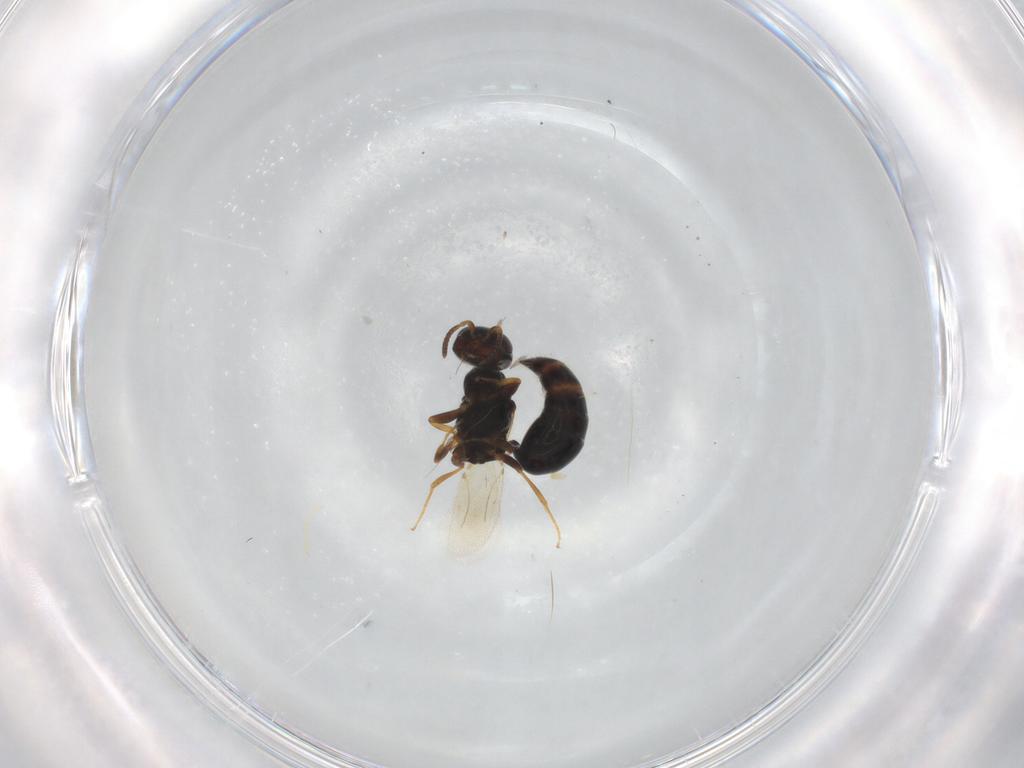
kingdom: Animalia
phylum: Arthropoda
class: Insecta
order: Hymenoptera
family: Bethylidae
